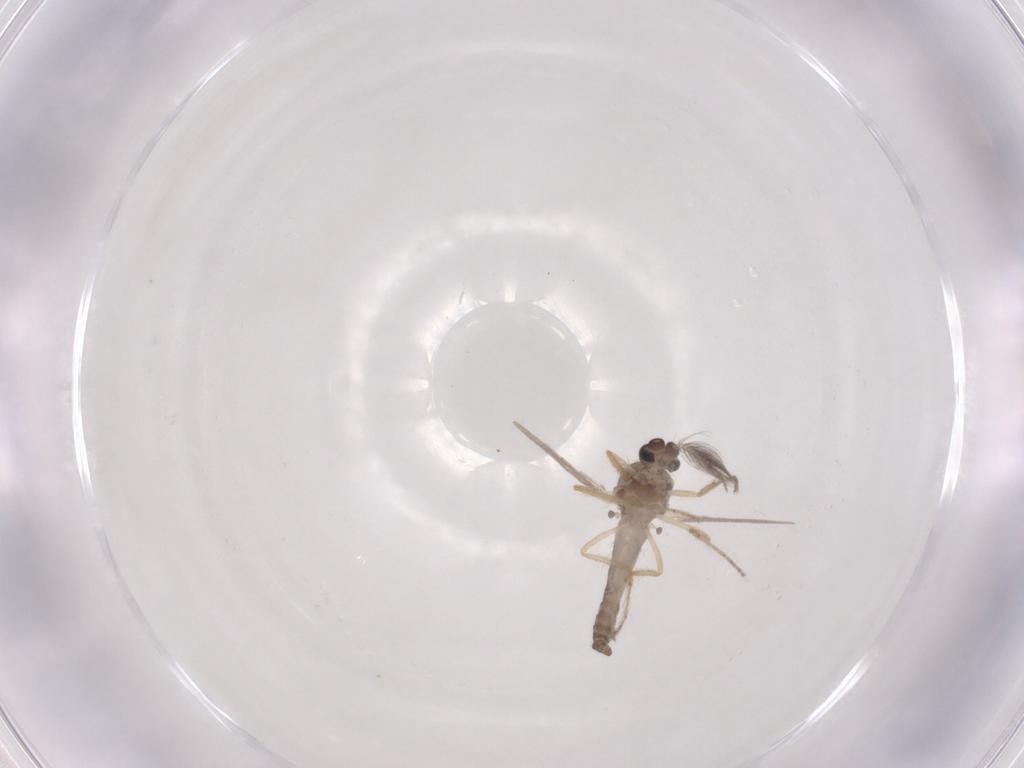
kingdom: Animalia
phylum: Arthropoda
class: Insecta
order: Diptera
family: Ceratopogonidae
